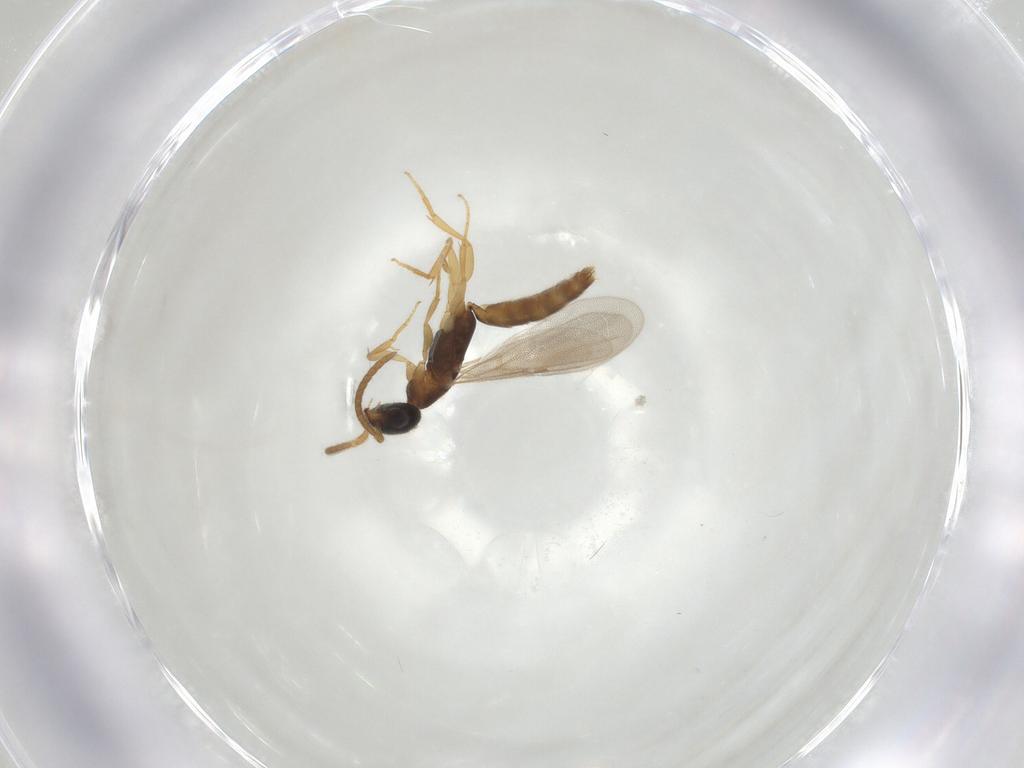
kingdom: Animalia
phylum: Arthropoda
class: Insecta
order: Hymenoptera
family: Bethylidae
